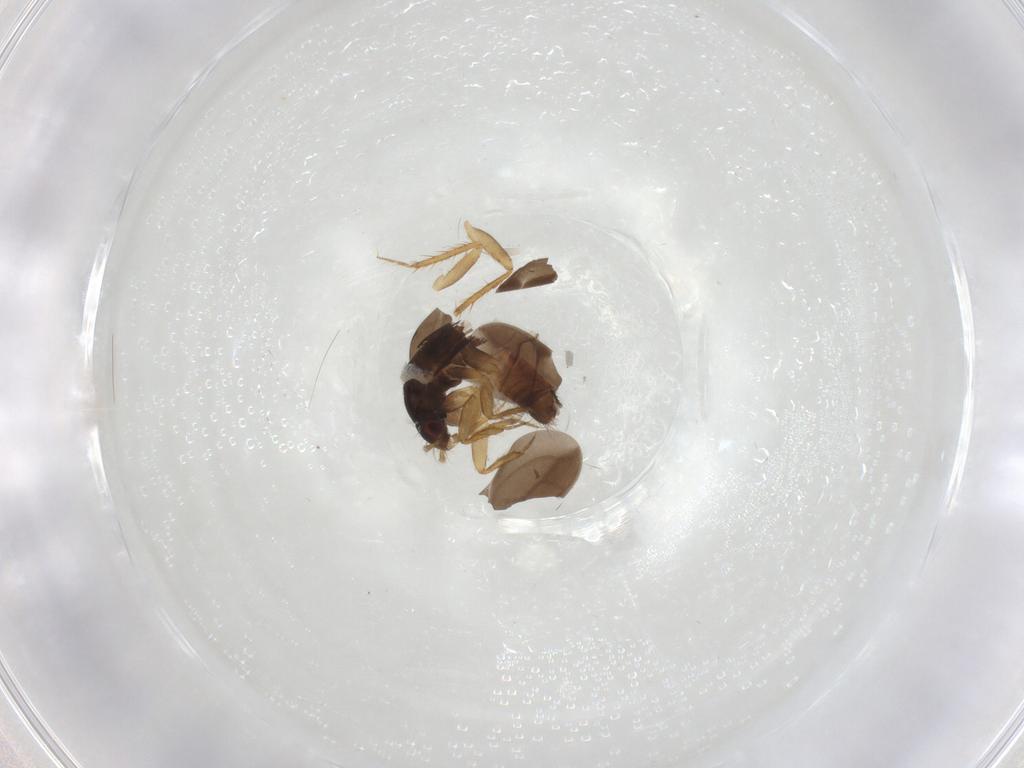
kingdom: Animalia
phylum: Arthropoda
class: Insecta
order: Hemiptera
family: Ceratocombidae
